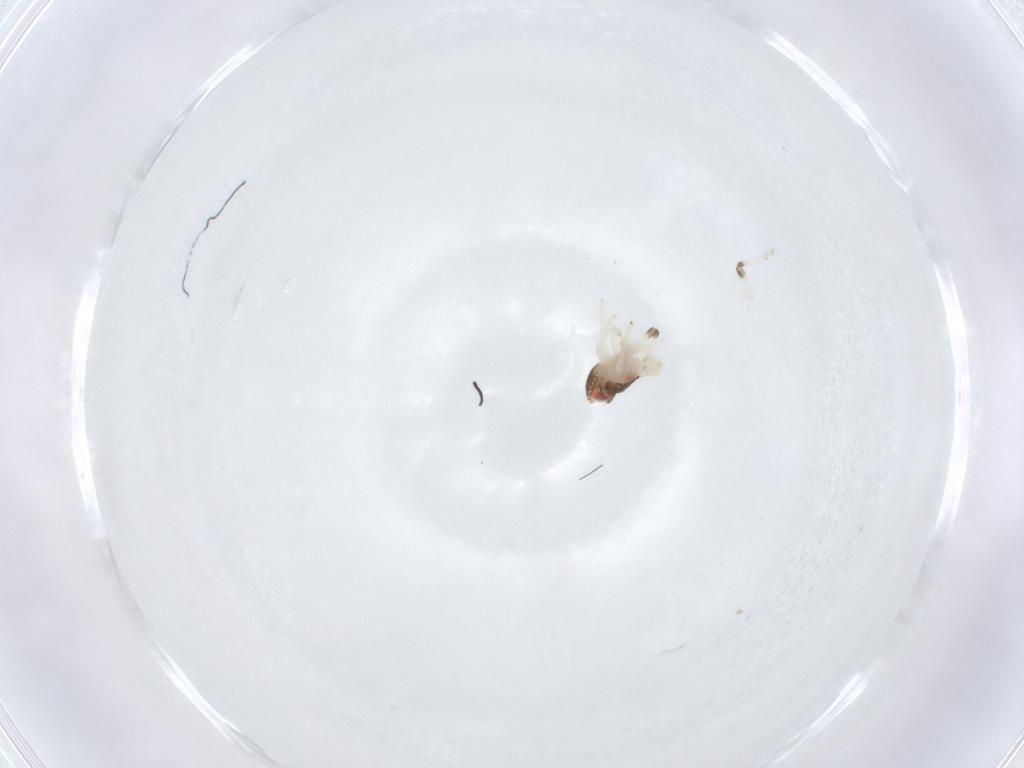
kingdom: Animalia
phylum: Arthropoda
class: Insecta
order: Hemiptera
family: Nogodinidae
